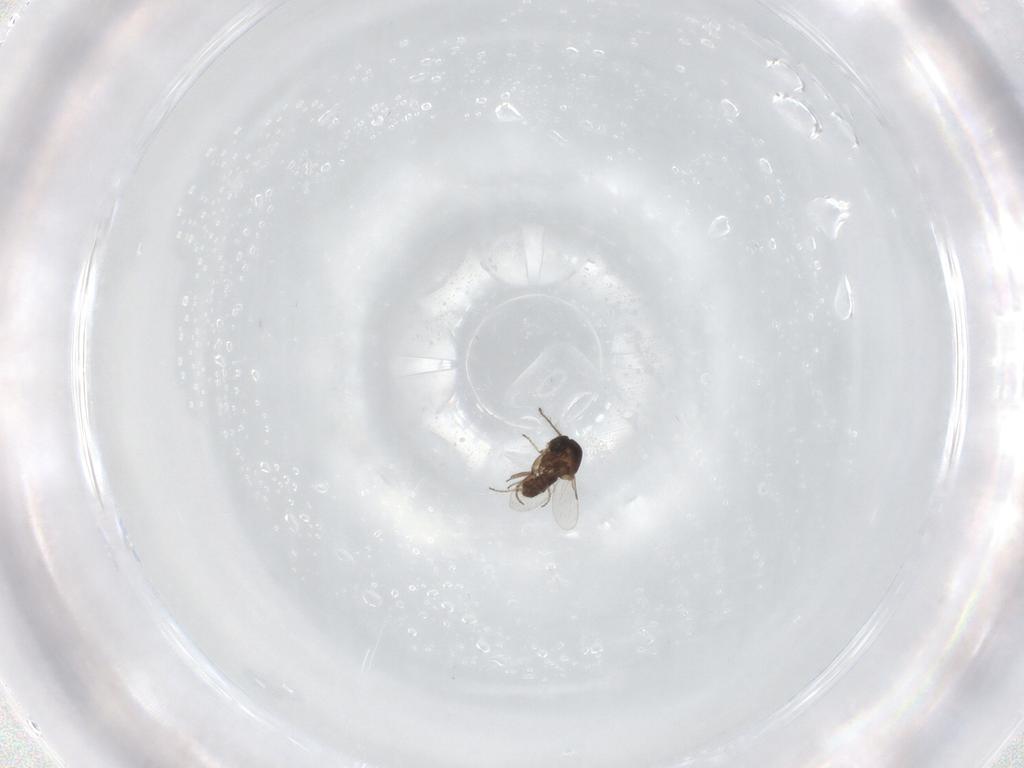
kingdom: Animalia
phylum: Arthropoda
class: Insecta
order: Diptera
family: Ceratopogonidae
